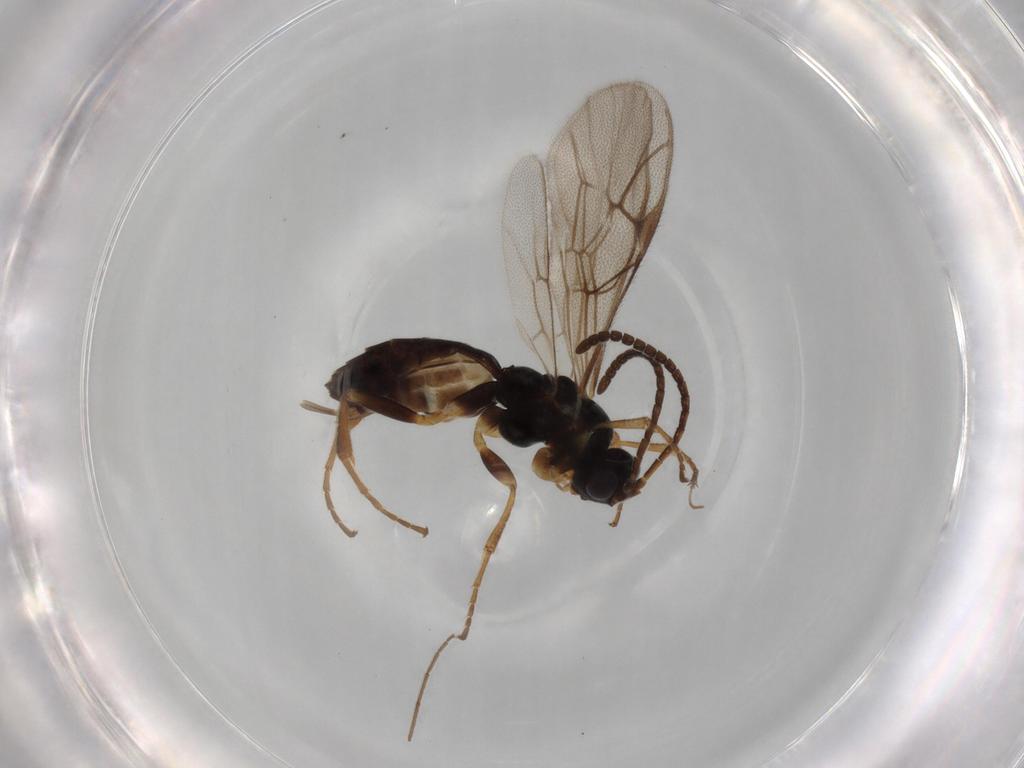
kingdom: Animalia
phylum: Arthropoda
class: Insecta
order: Hymenoptera
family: Ichneumonidae
